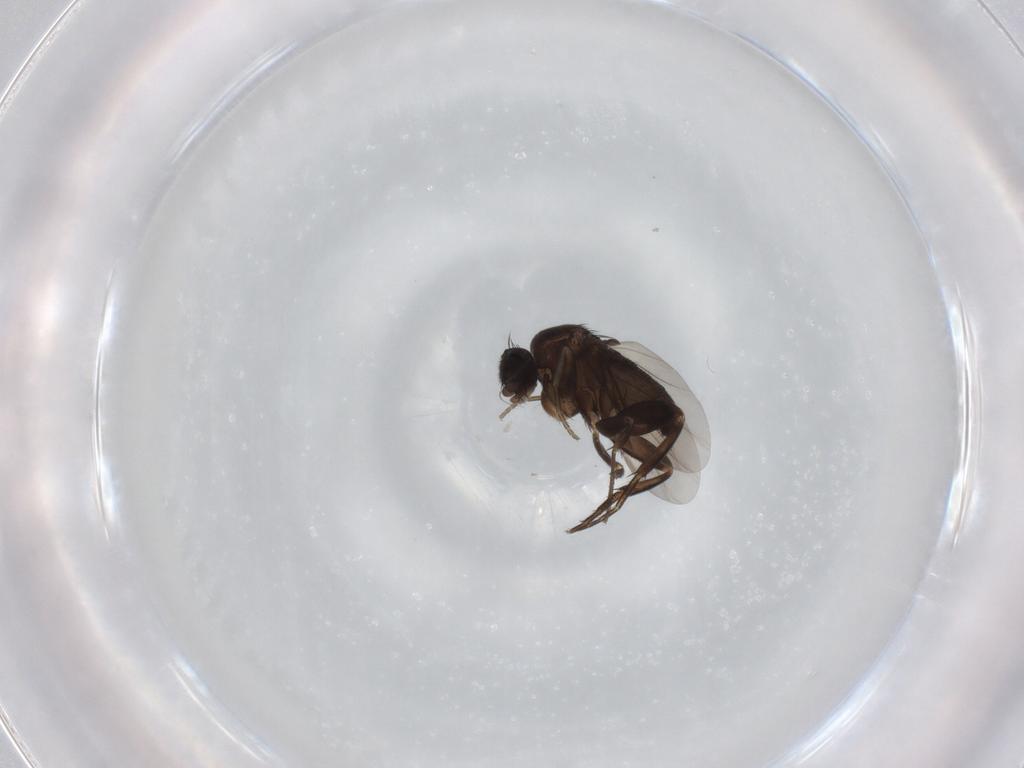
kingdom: Animalia
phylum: Arthropoda
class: Insecta
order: Diptera
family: Phoridae
